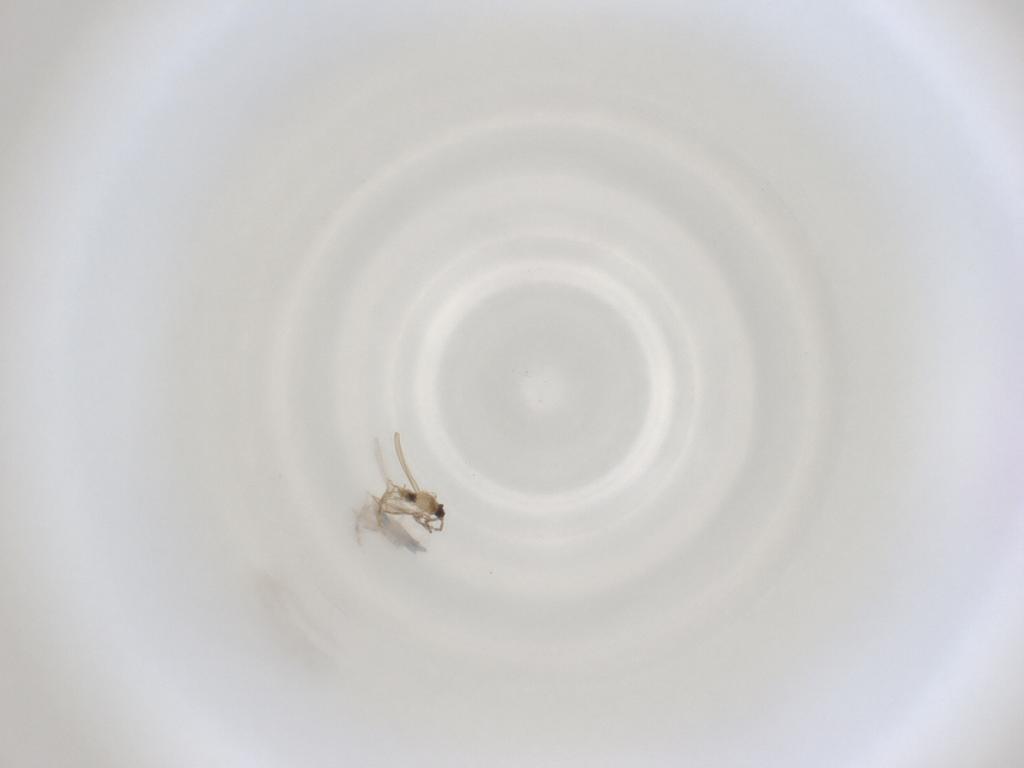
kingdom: Animalia
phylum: Arthropoda
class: Insecta
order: Diptera
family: Cecidomyiidae
